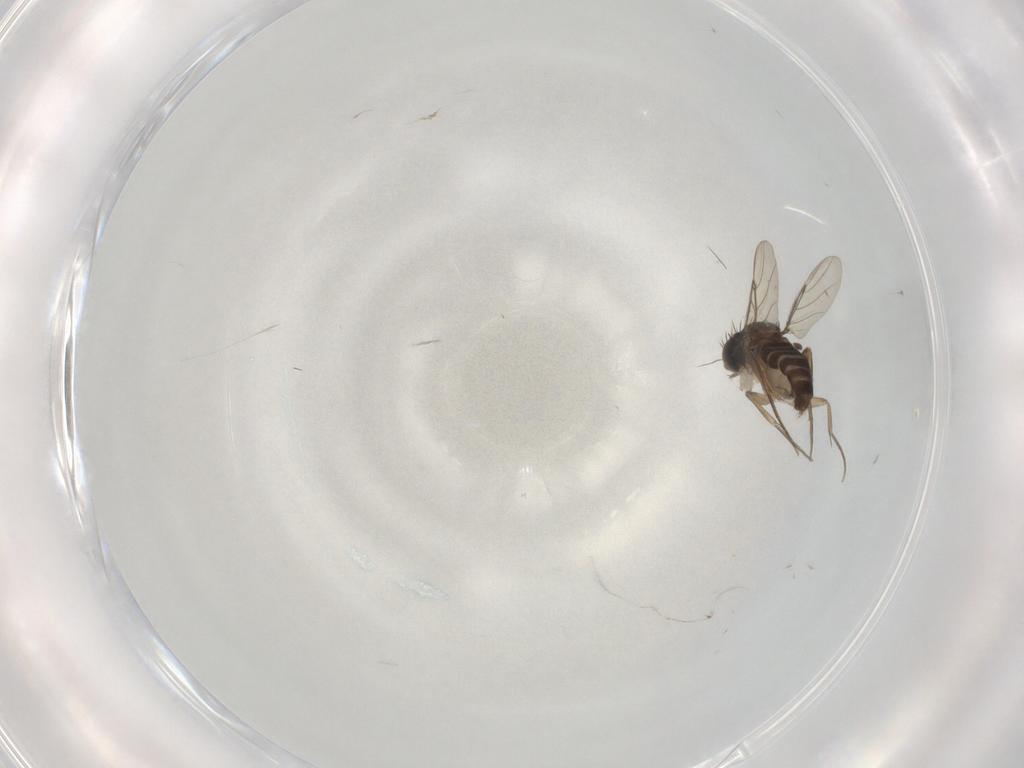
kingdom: Animalia
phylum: Arthropoda
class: Insecta
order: Diptera
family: Phoridae
